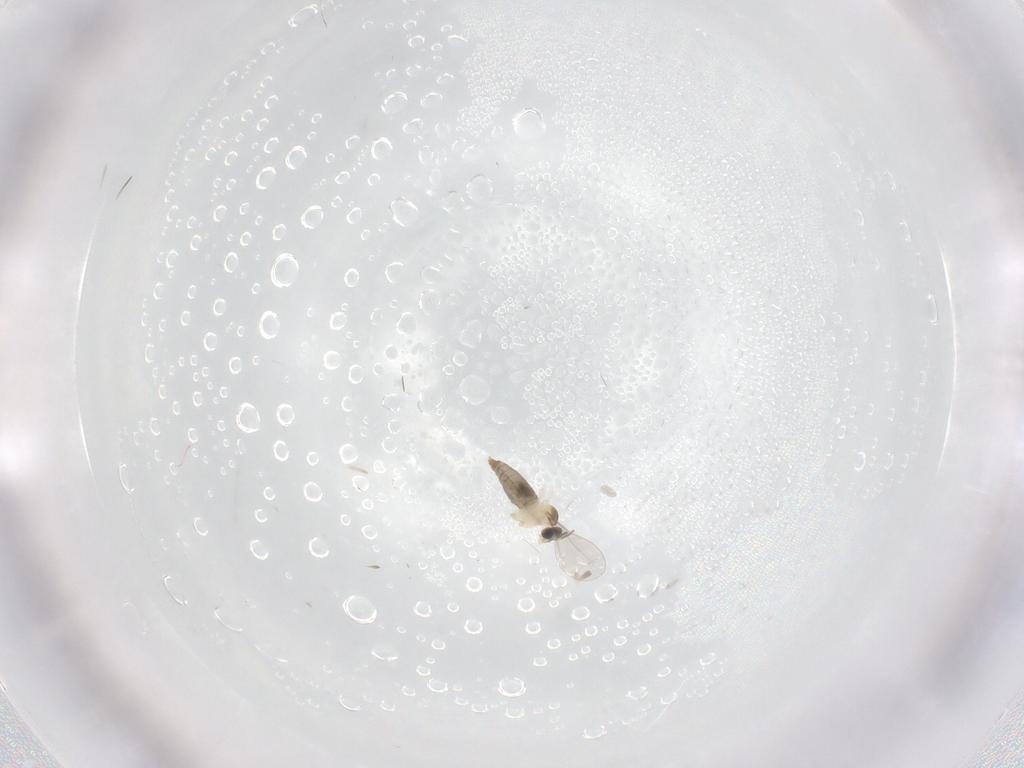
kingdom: Animalia
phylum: Arthropoda
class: Insecta
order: Diptera
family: Cecidomyiidae
